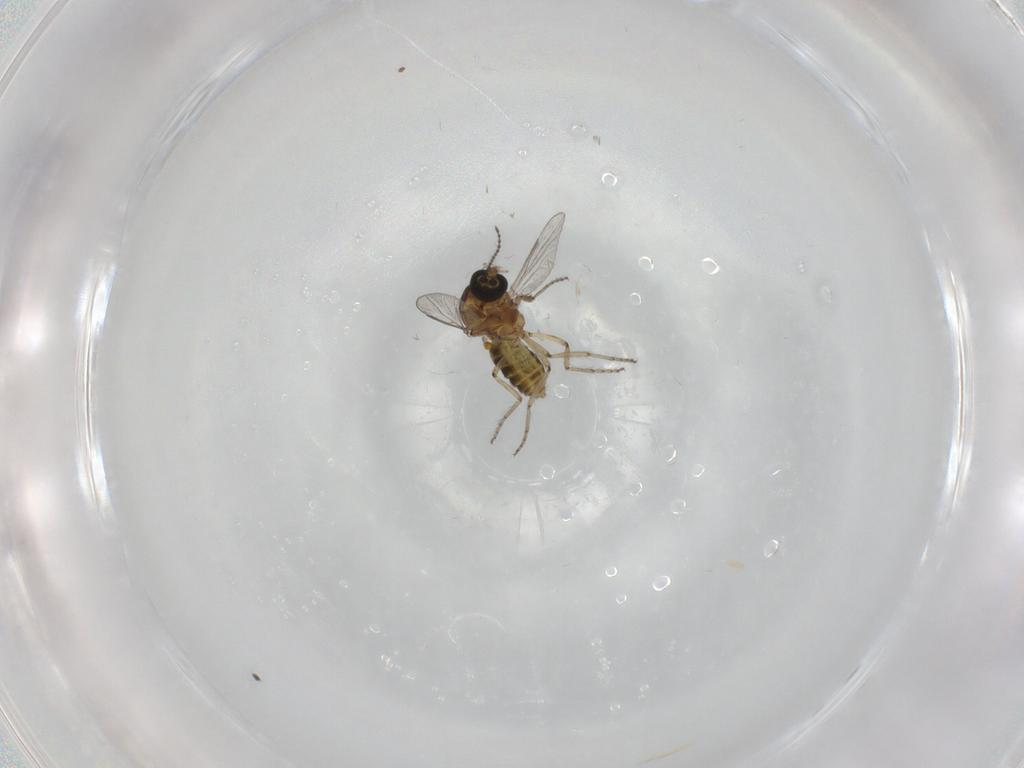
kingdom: Animalia
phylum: Arthropoda
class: Insecta
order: Diptera
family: Ceratopogonidae
